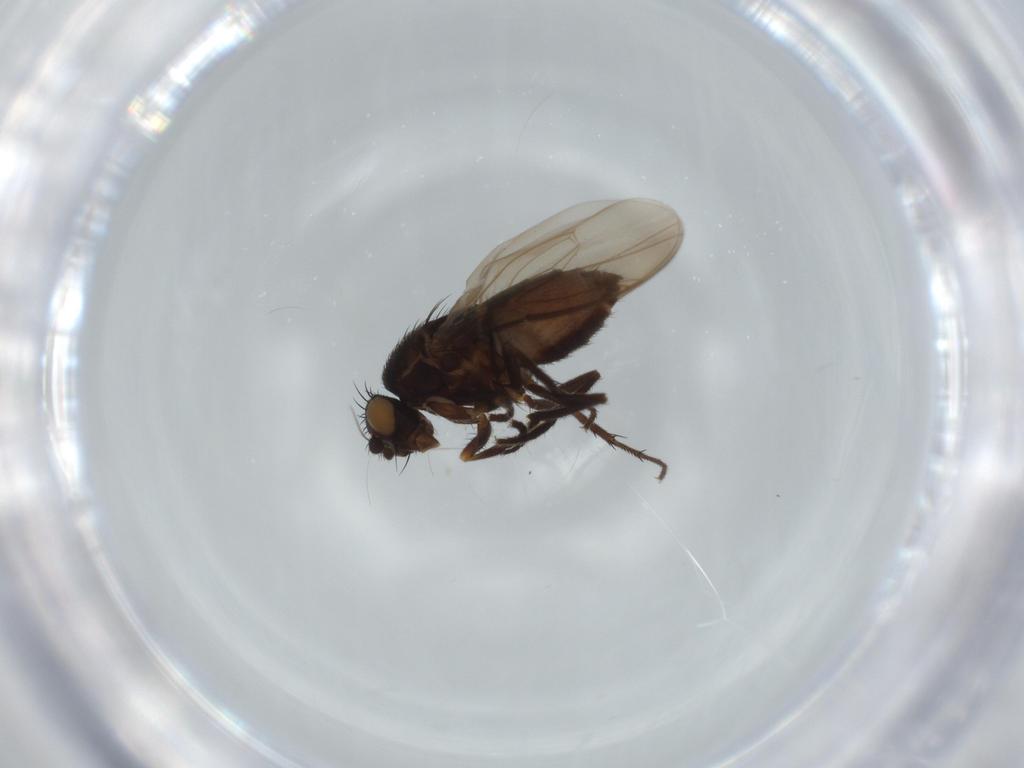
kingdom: Animalia
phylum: Arthropoda
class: Insecta
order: Diptera
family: Sphaeroceridae
